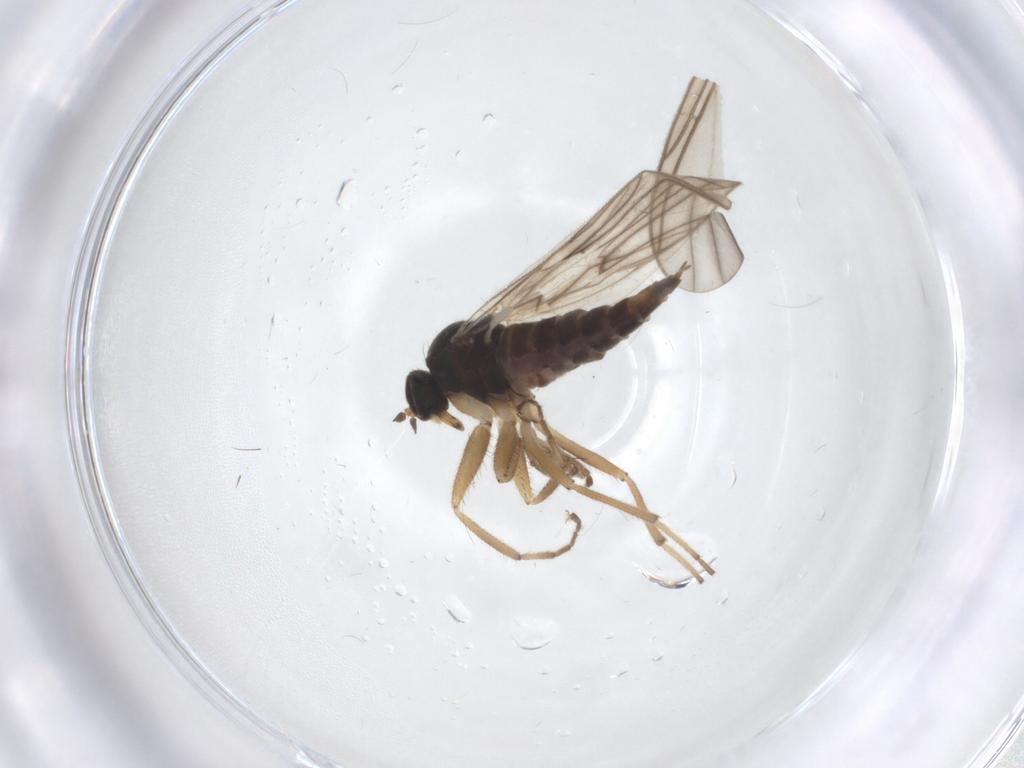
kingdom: Animalia
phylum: Arthropoda
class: Insecta
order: Diptera
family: Hybotidae
